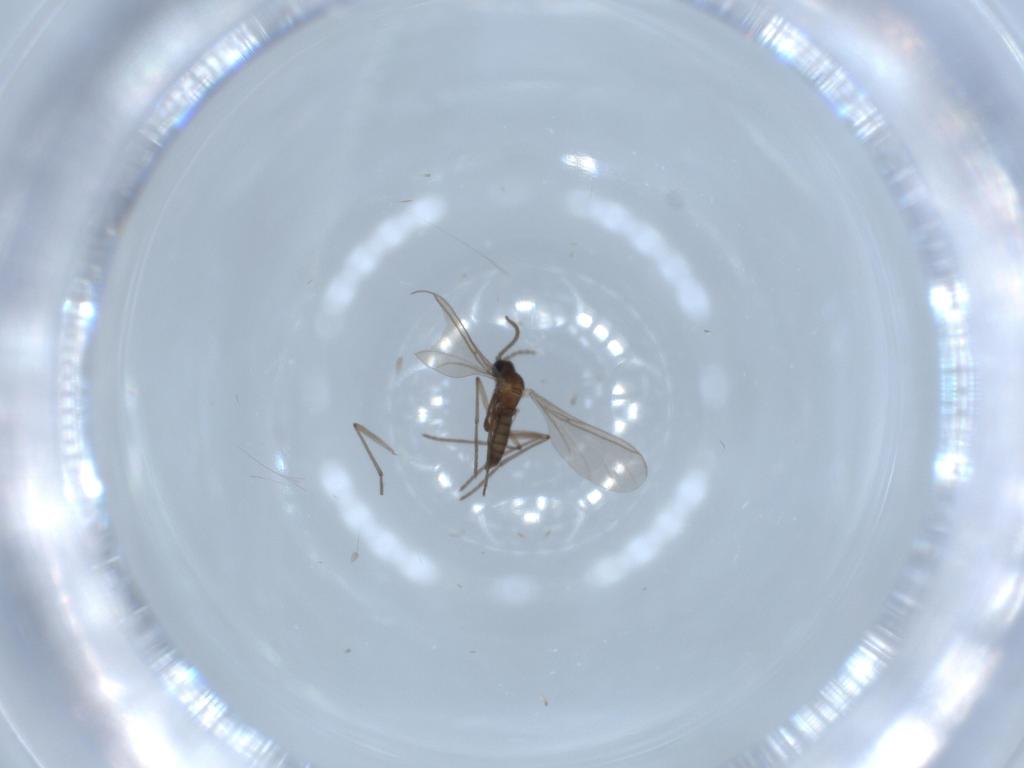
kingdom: Animalia
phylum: Arthropoda
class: Insecta
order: Diptera
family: Sciaridae
